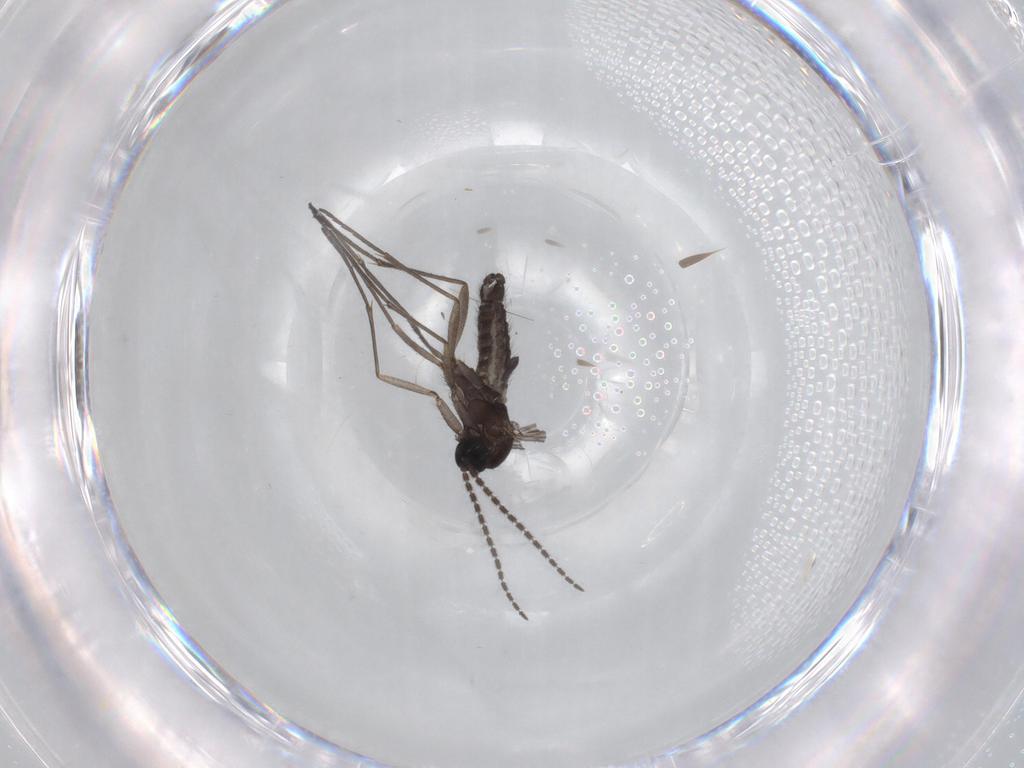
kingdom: Animalia
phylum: Arthropoda
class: Insecta
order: Diptera
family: Sciaridae
